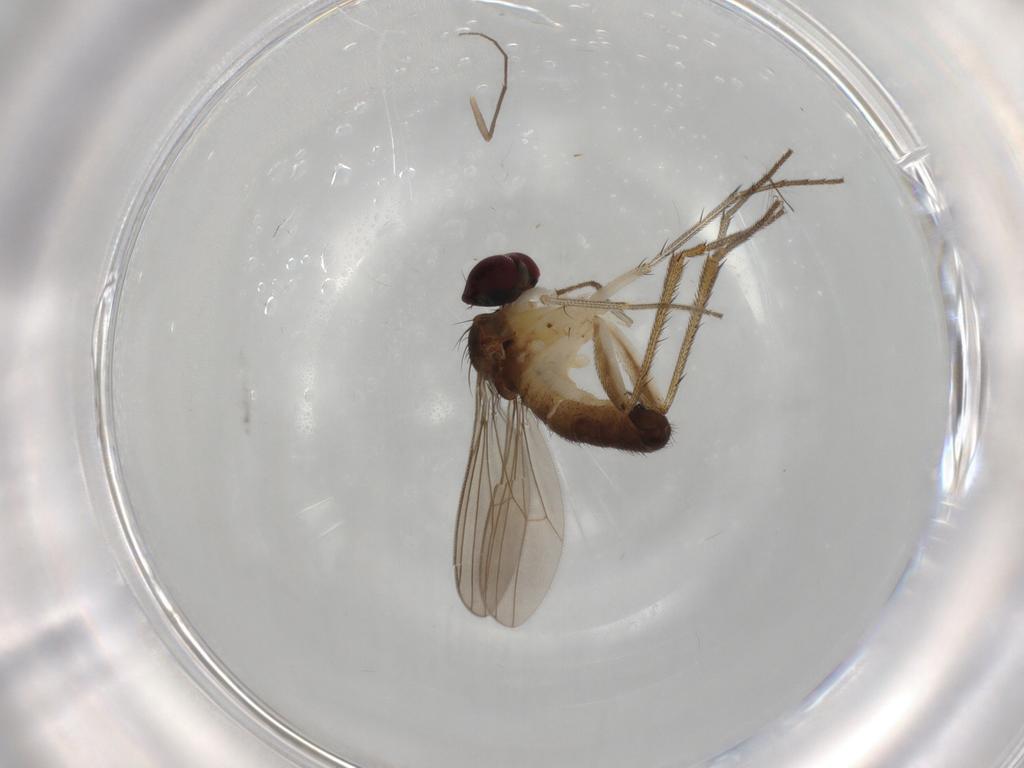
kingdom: Animalia
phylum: Arthropoda
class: Insecta
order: Diptera
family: Dolichopodidae
